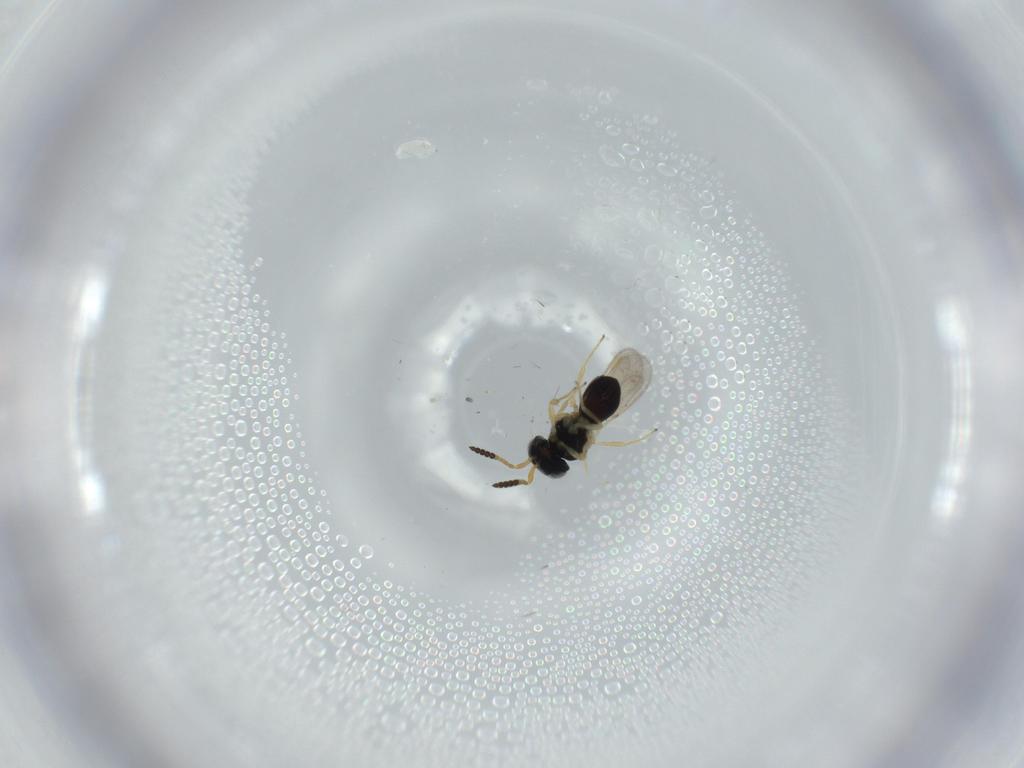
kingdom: Animalia
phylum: Arthropoda
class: Insecta
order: Hymenoptera
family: Scelionidae
